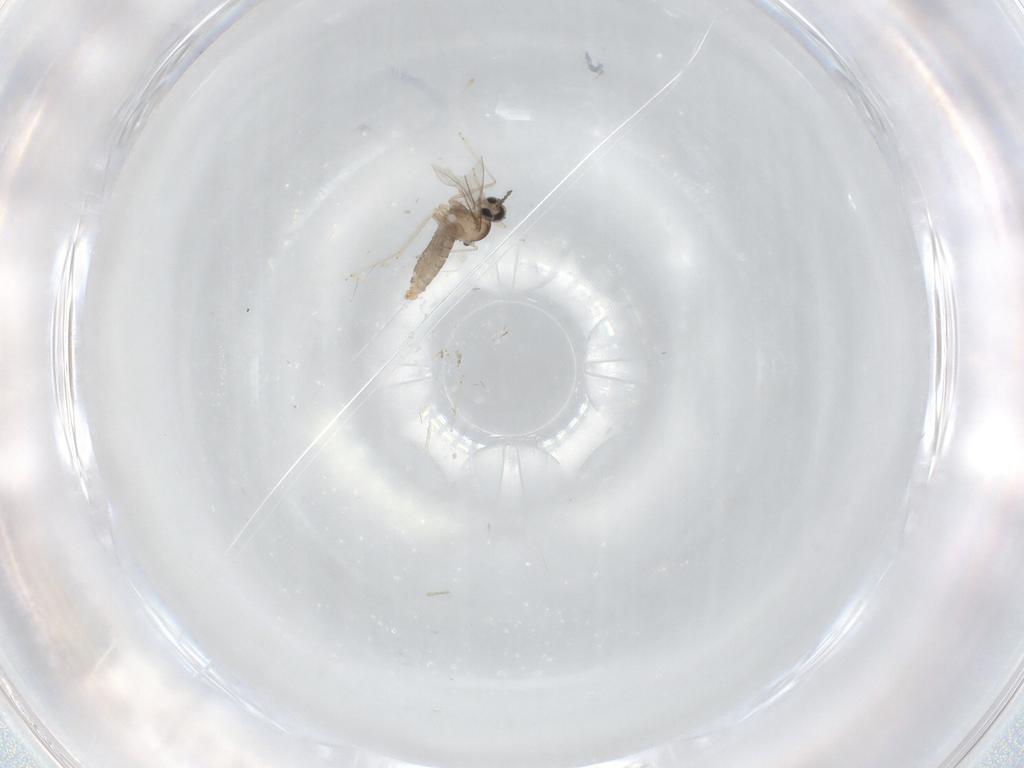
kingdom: Animalia
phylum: Arthropoda
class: Insecta
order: Diptera
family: Cecidomyiidae
